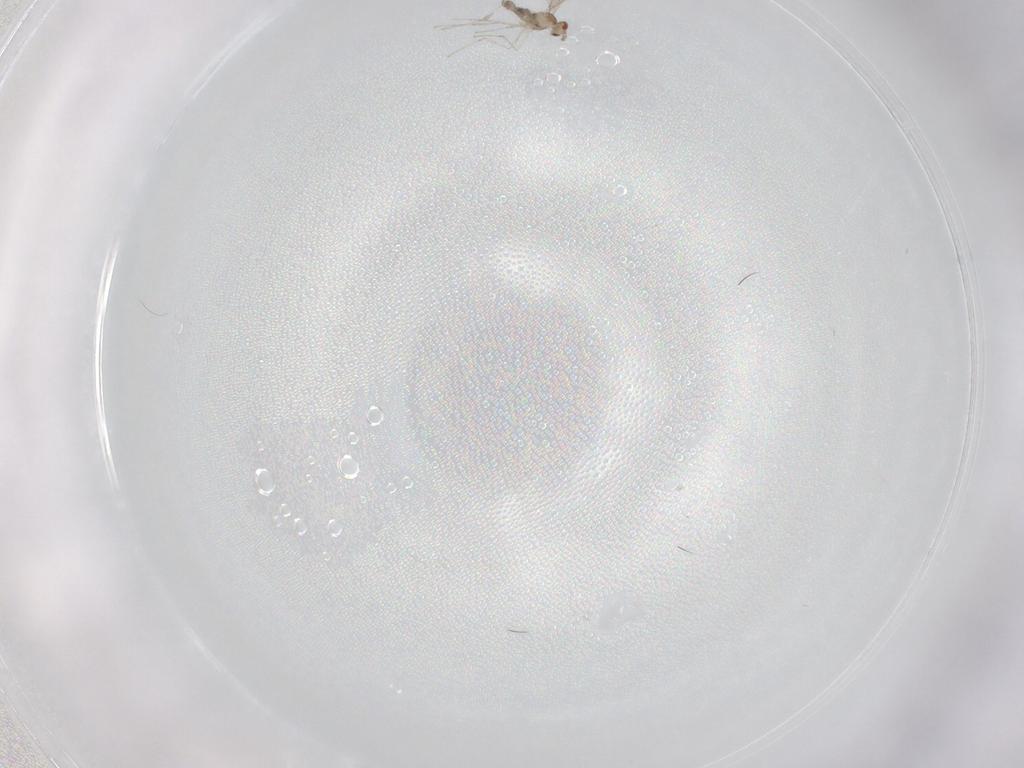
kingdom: Animalia
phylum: Arthropoda
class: Insecta
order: Diptera
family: Cecidomyiidae
